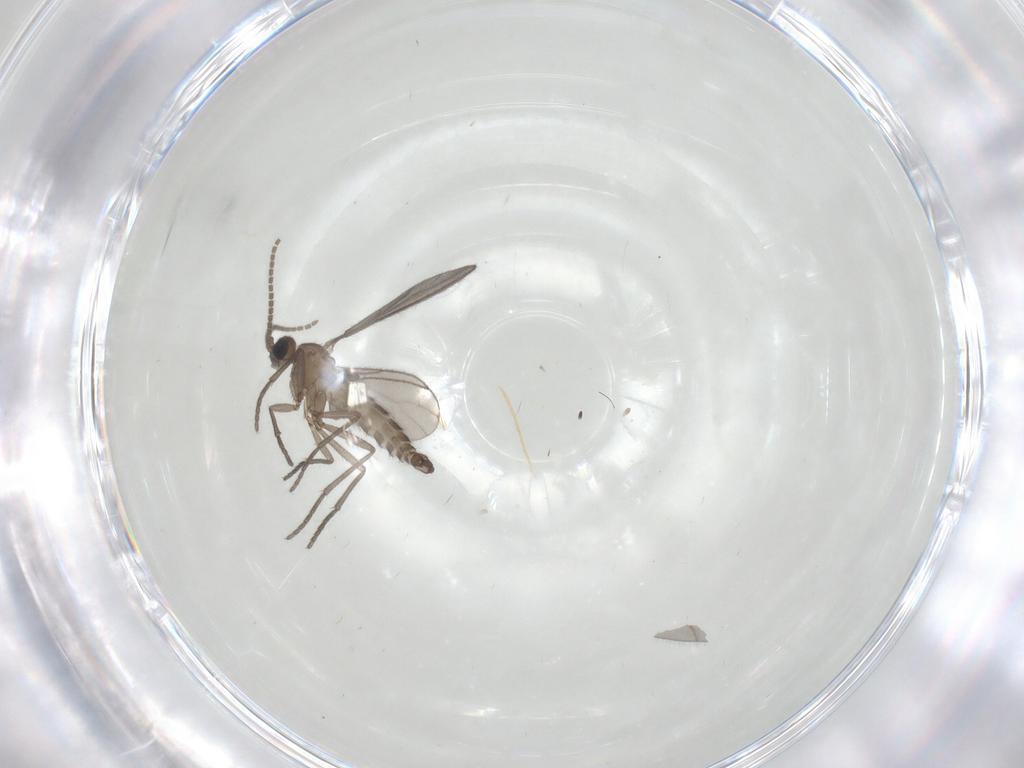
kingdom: Animalia
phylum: Arthropoda
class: Insecta
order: Diptera
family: Sciaridae
